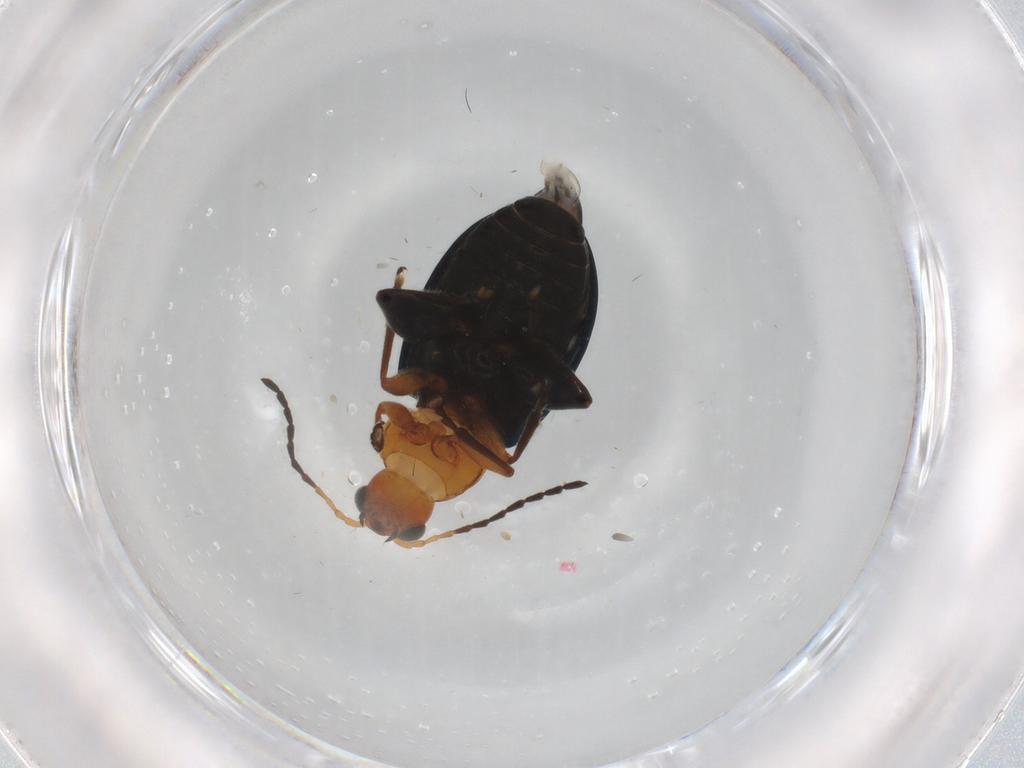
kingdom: Animalia
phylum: Arthropoda
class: Insecta
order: Coleoptera
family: Chrysomelidae
